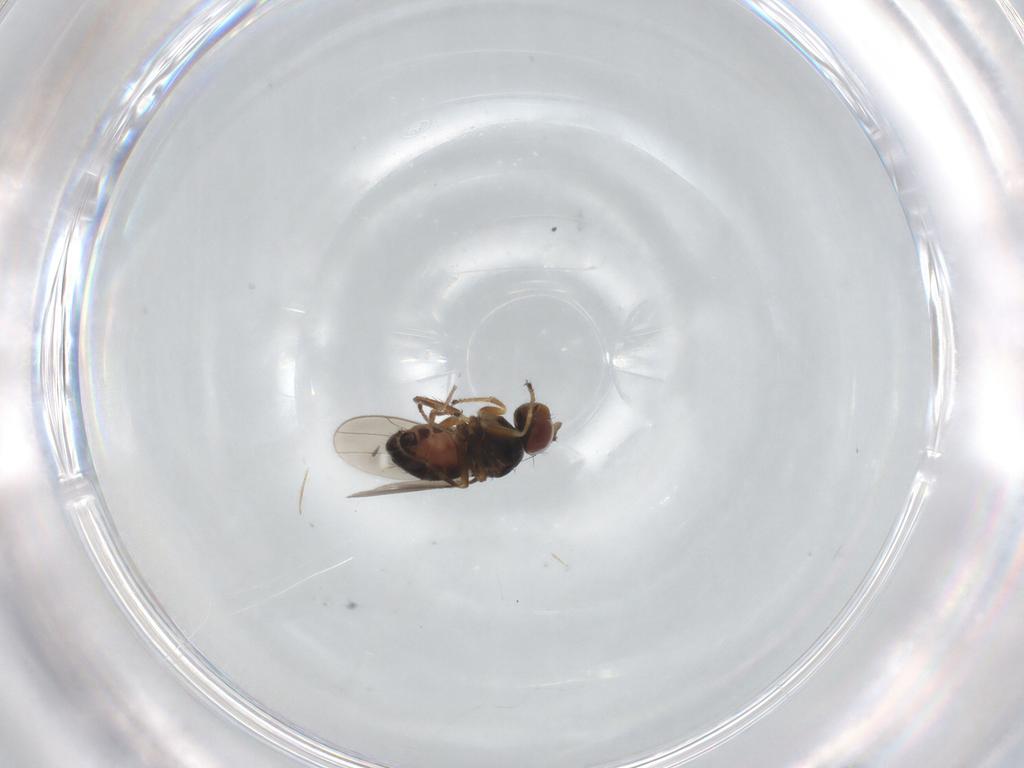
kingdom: Animalia
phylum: Arthropoda
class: Insecta
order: Diptera
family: Ephydridae
